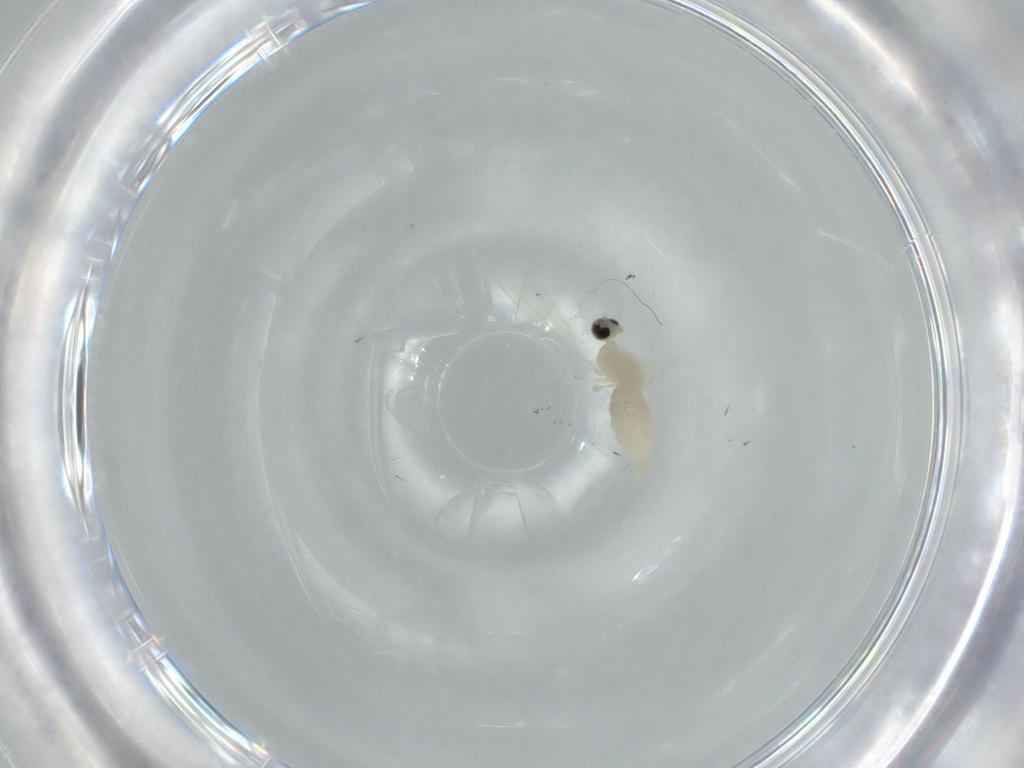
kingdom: Animalia
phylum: Arthropoda
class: Insecta
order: Diptera
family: Cecidomyiidae
